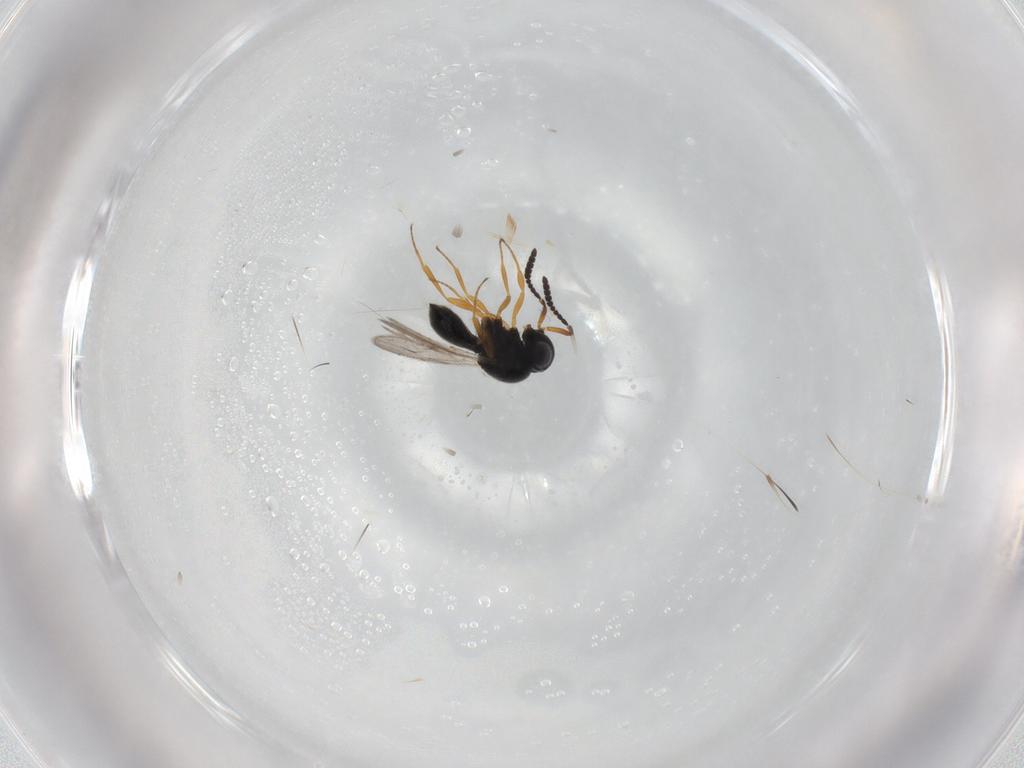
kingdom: Animalia
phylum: Arthropoda
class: Insecta
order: Hymenoptera
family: Scelionidae
